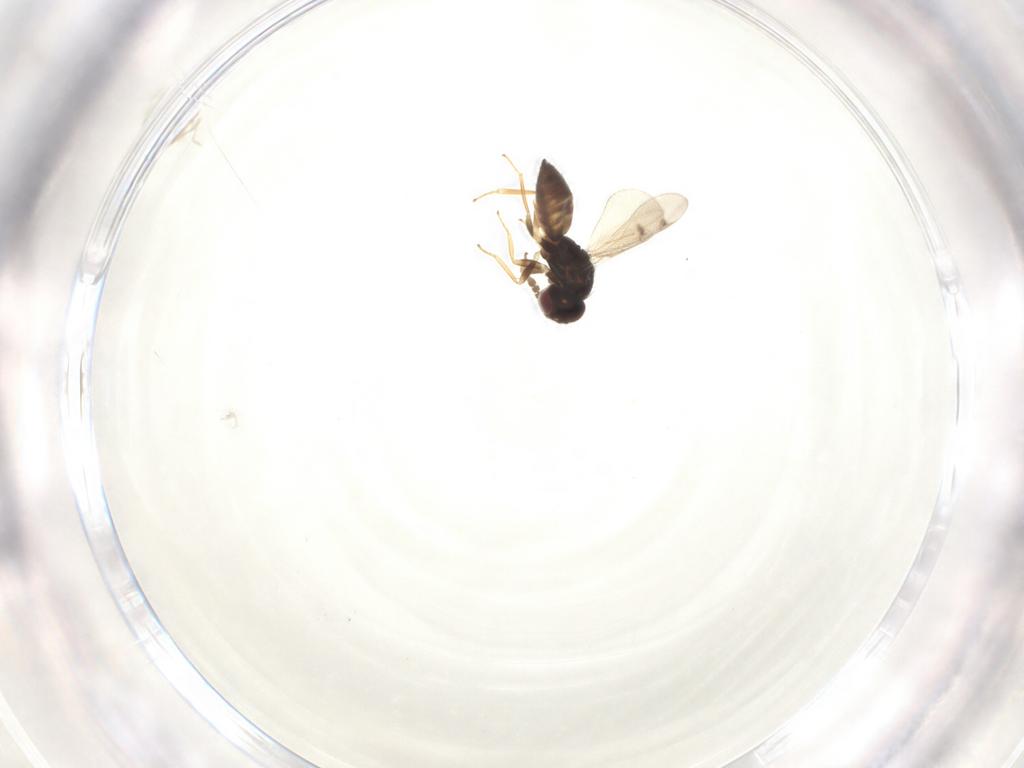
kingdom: Animalia
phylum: Arthropoda
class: Insecta
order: Hymenoptera
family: Eulophidae
